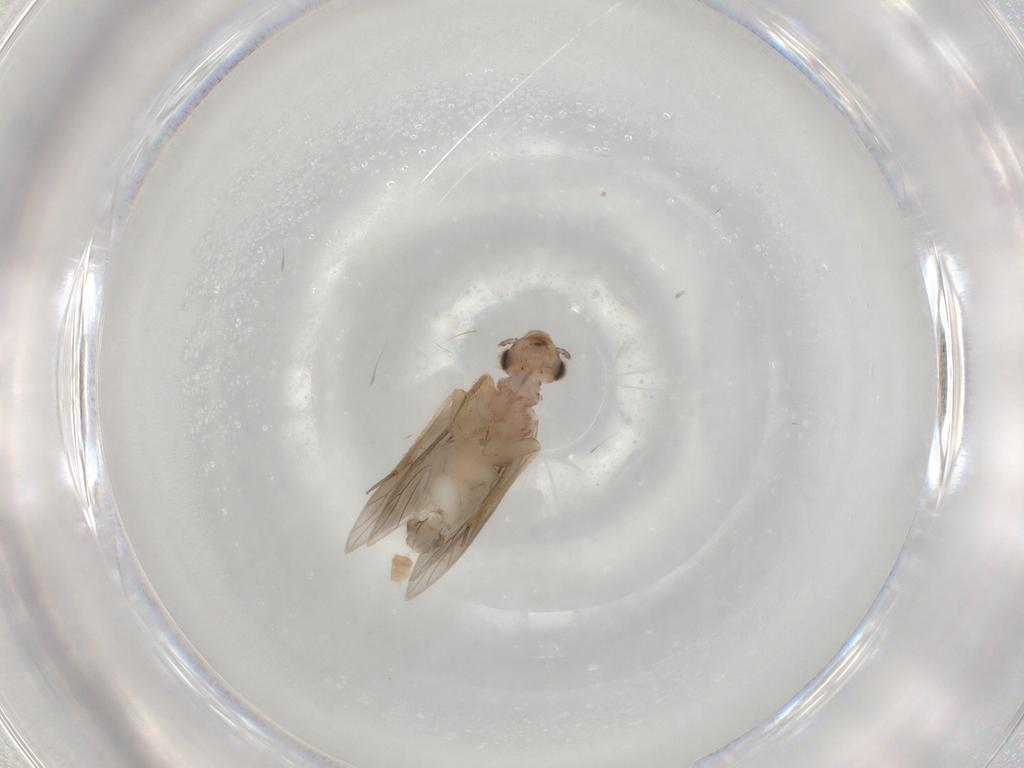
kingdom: Animalia
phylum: Arthropoda
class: Insecta
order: Psocodea
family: Lepidopsocidae
